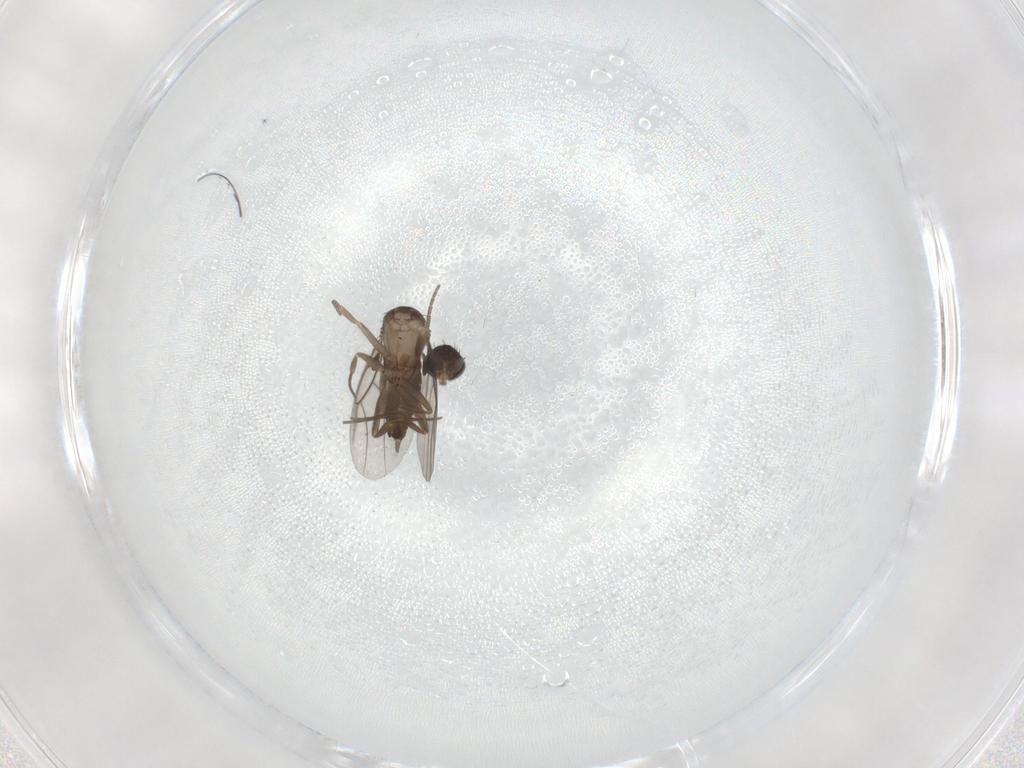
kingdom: Animalia
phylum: Arthropoda
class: Insecta
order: Diptera
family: Phoridae
